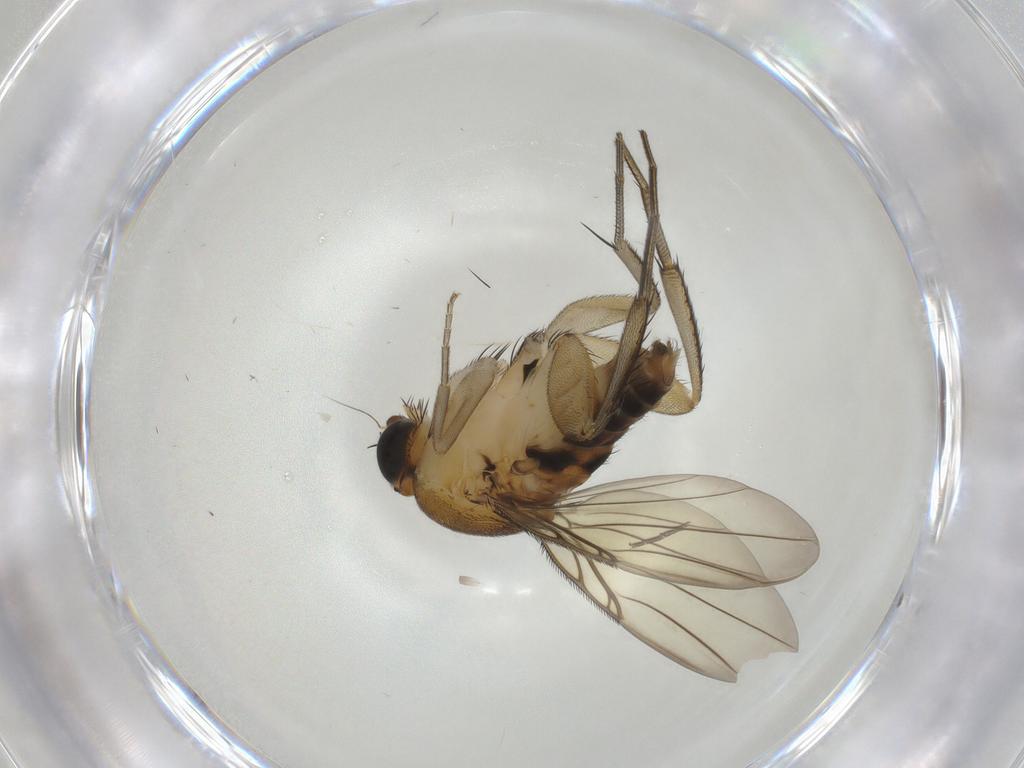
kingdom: Animalia
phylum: Arthropoda
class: Insecta
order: Diptera
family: Phoridae
